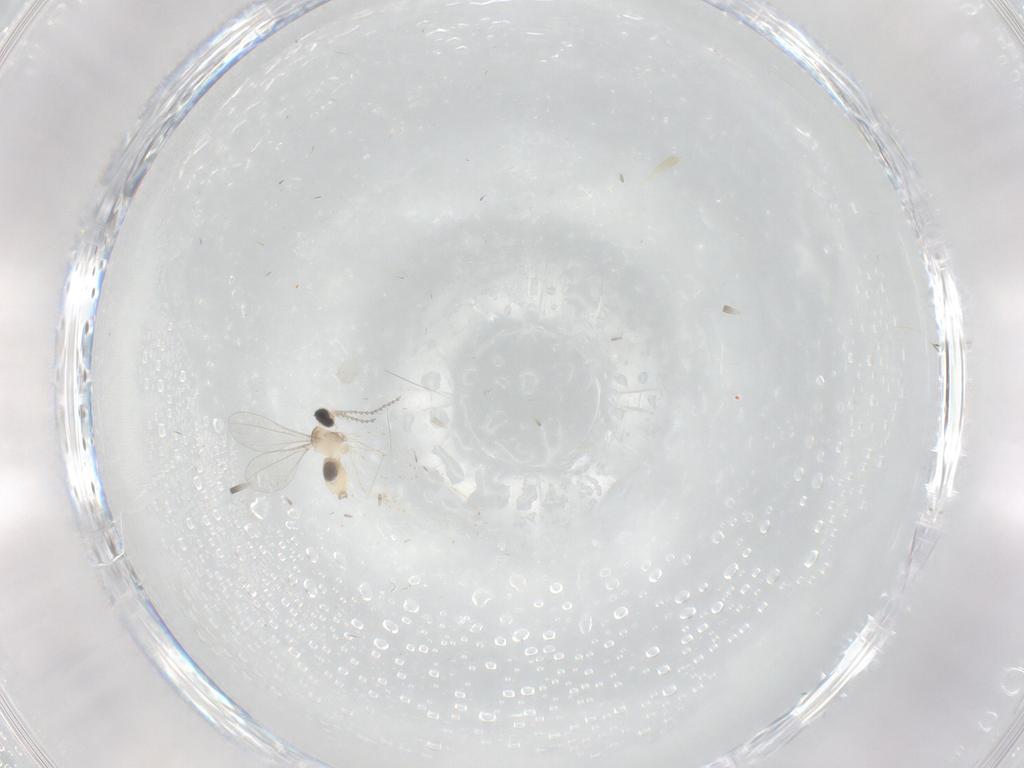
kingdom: Animalia
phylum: Arthropoda
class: Insecta
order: Diptera
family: Cecidomyiidae
